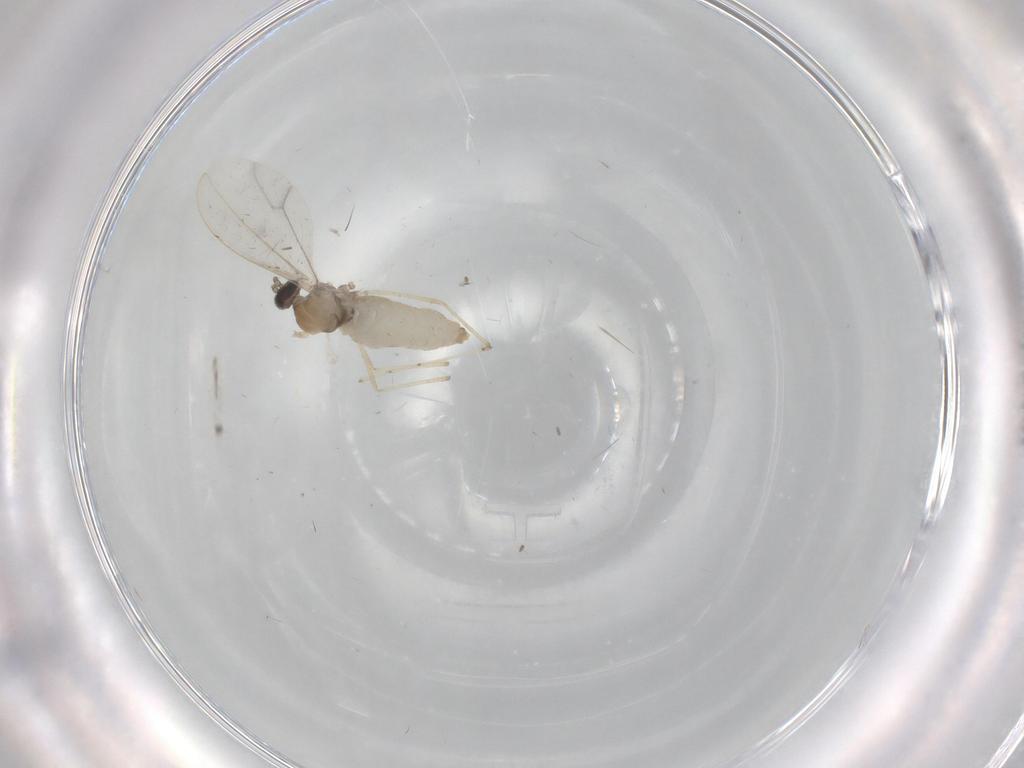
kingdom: Animalia
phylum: Arthropoda
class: Insecta
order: Diptera
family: Cecidomyiidae
